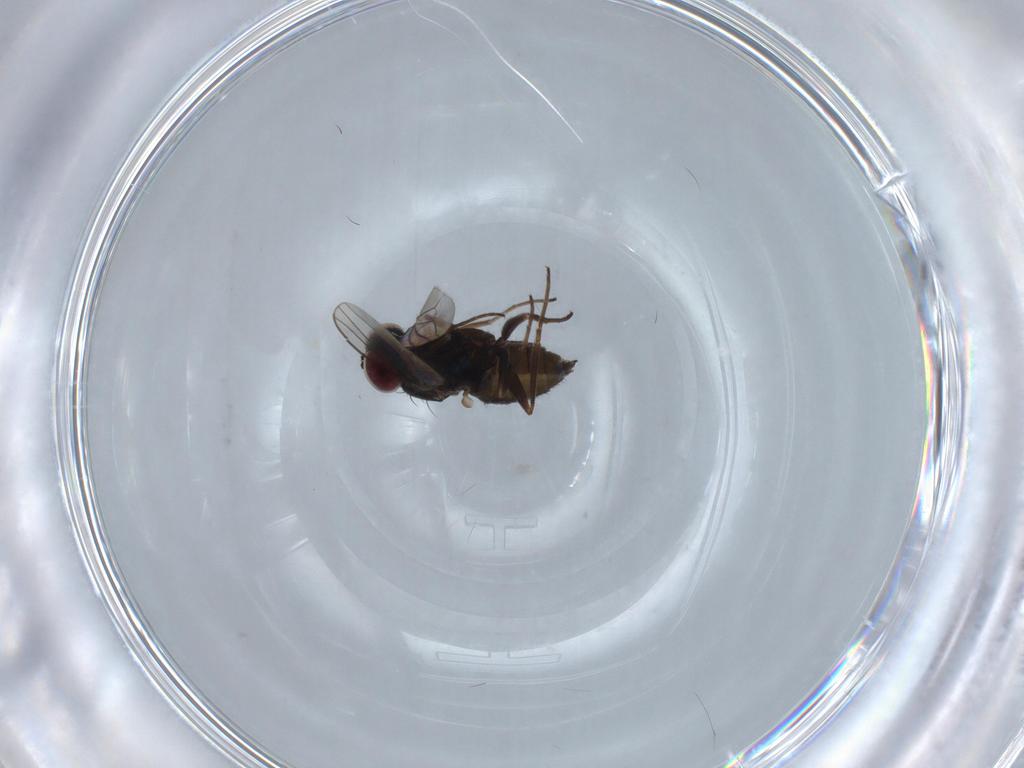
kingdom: Animalia
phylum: Arthropoda
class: Insecta
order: Diptera
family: Dolichopodidae
